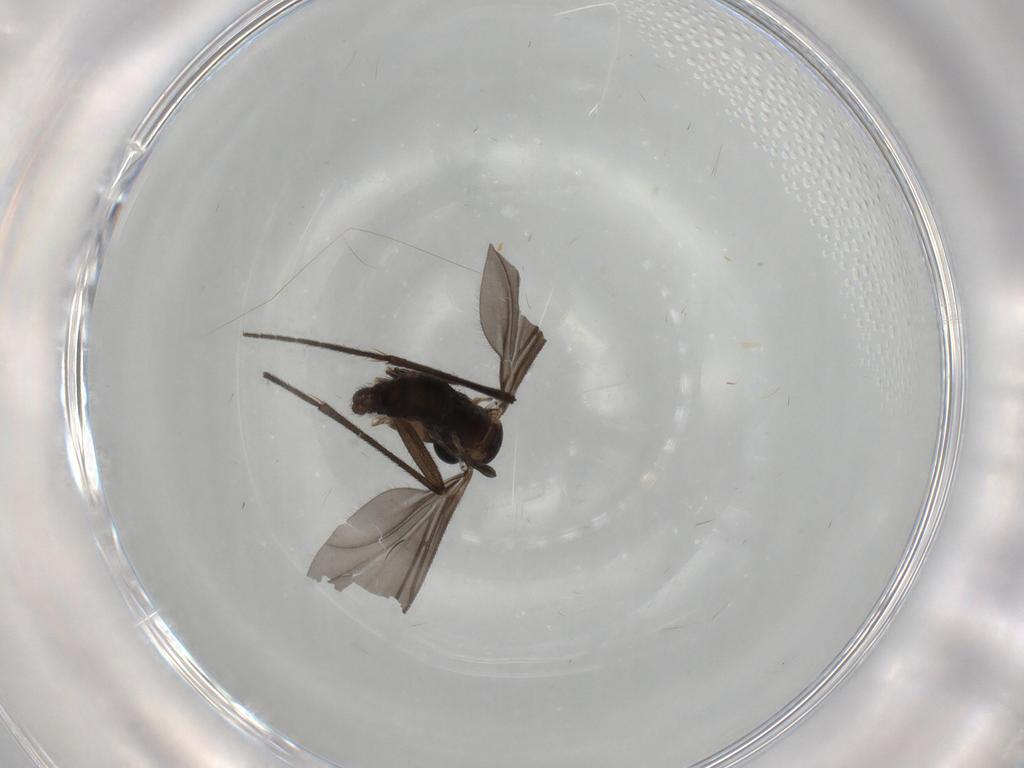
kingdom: Animalia
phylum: Arthropoda
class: Insecta
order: Diptera
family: Sciaridae
